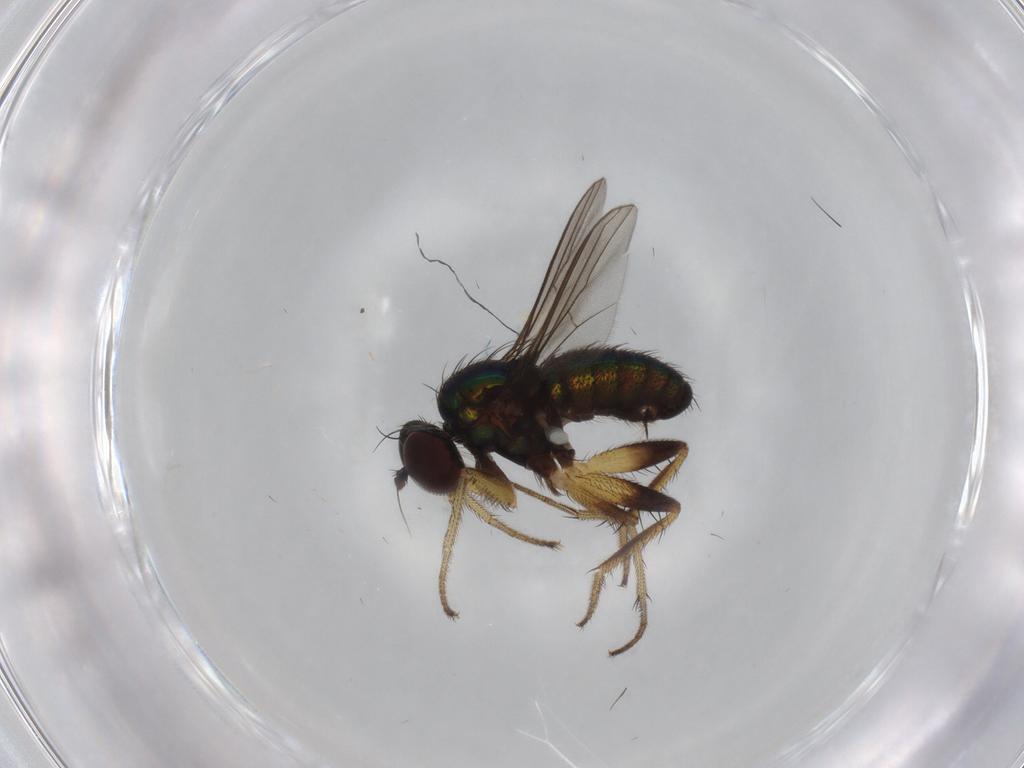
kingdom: Animalia
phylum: Arthropoda
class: Insecta
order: Diptera
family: Dolichopodidae
